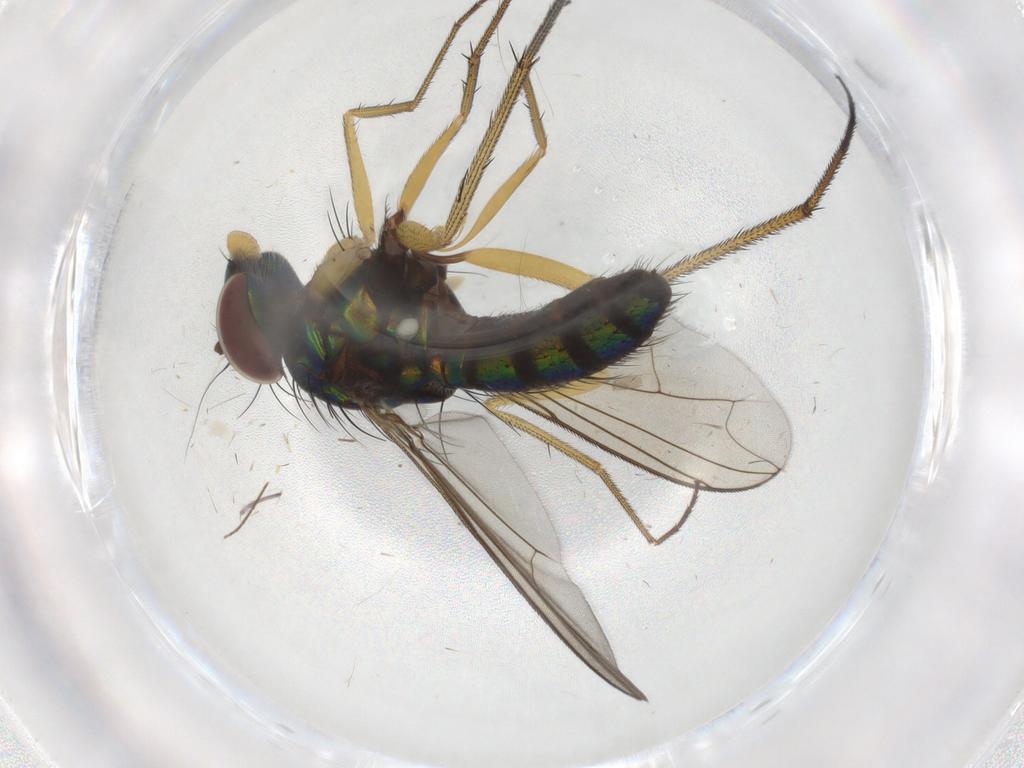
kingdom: Animalia
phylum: Arthropoda
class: Insecta
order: Diptera
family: Dolichopodidae
